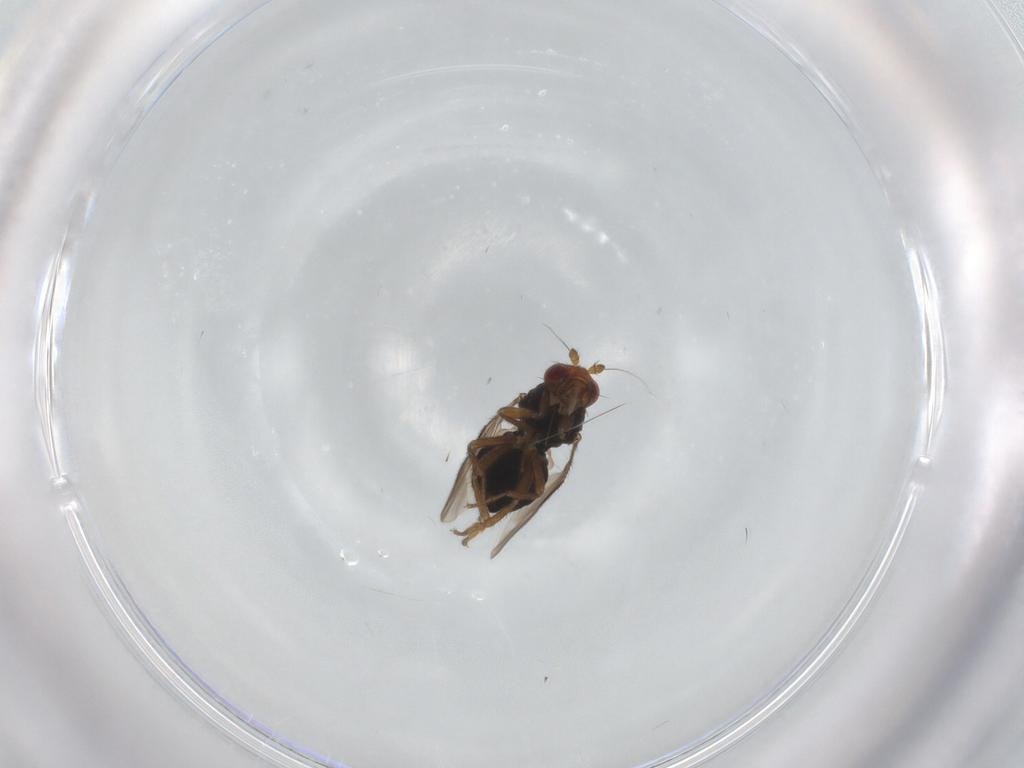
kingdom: Animalia
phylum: Arthropoda
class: Insecta
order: Diptera
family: Sphaeroceridae
